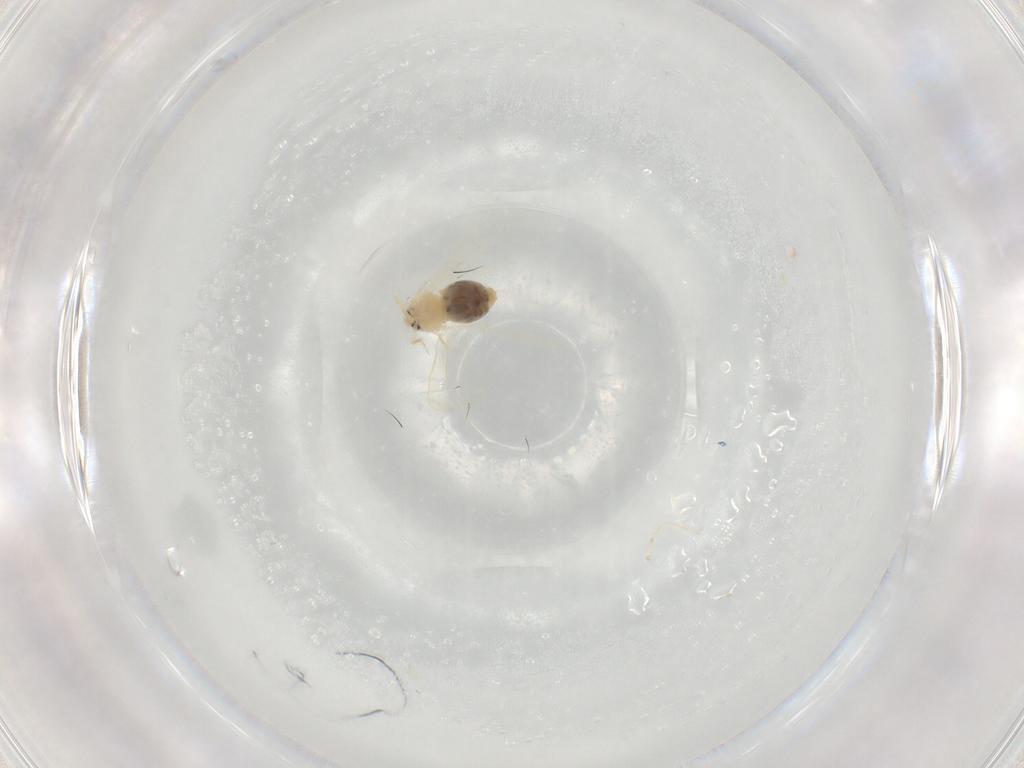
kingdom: Animalia
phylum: Arthropoda
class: Insecta
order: Hemiptera
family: Aleyrodidae
